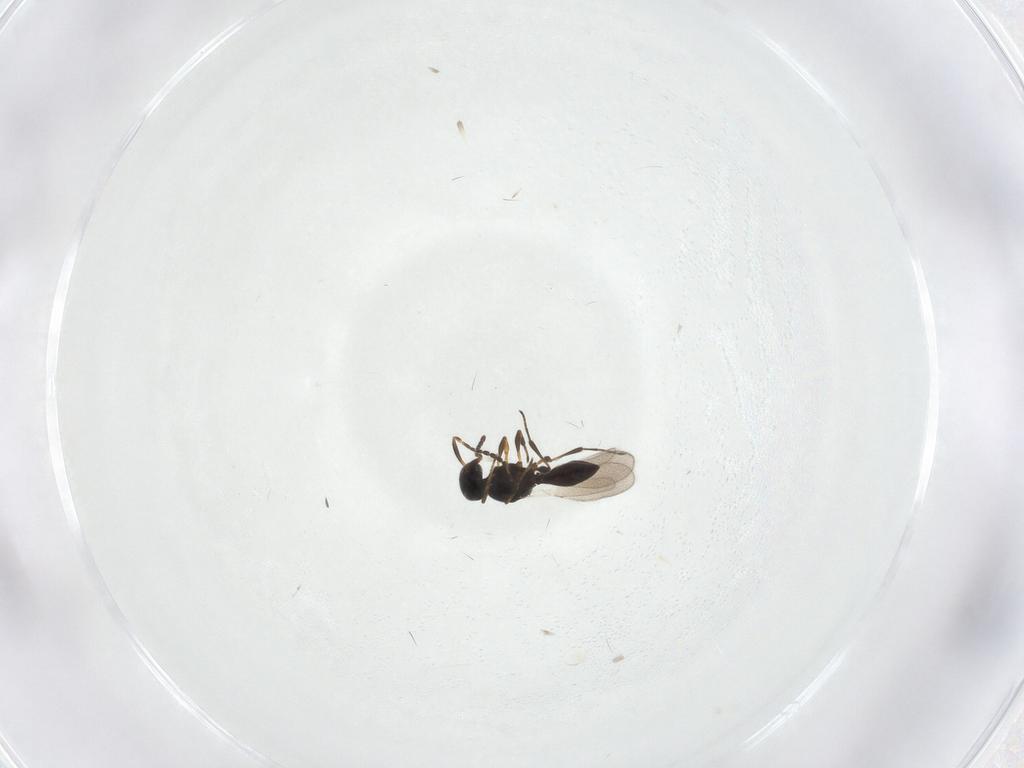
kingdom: Animalia
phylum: Arthropoda
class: Insecta
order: Hymenoptera
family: Platygastridae
